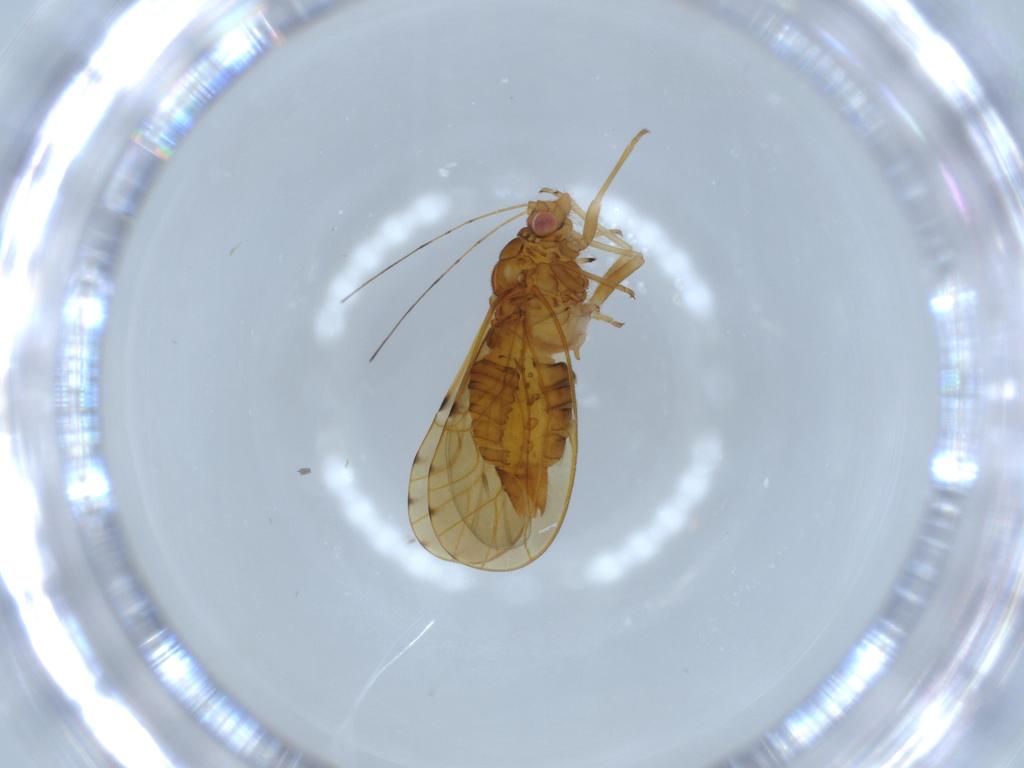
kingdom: Animalia
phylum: Arthropoda
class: Insecta
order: Hemiptera
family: Psylloidea_incertae_sedis
